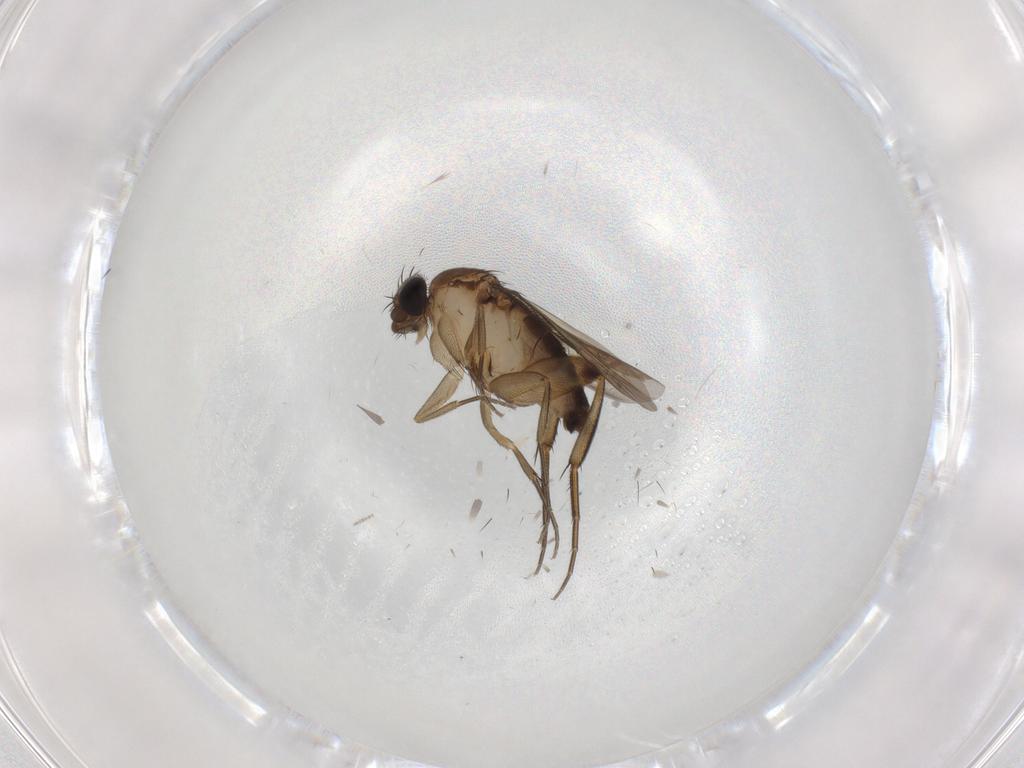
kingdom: Animalia
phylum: Arthropoda
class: Insecta
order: Diptera
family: Phoridae
